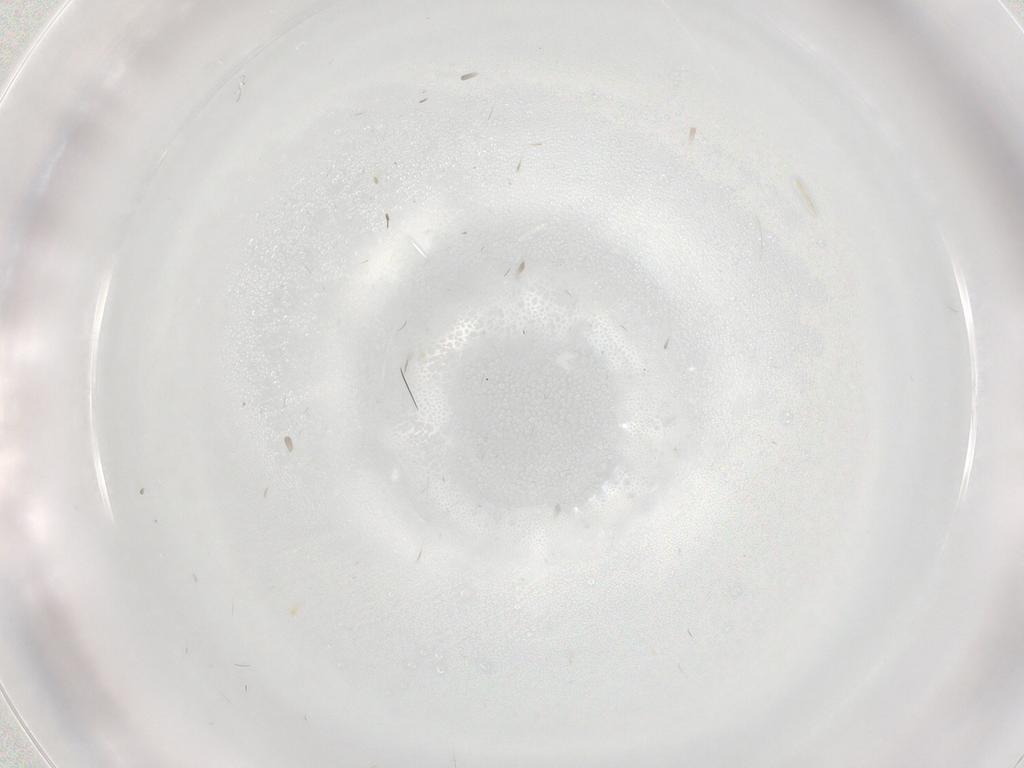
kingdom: Animalia
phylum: Arthropoda
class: Insecta
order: Diptera
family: Chironomidae
